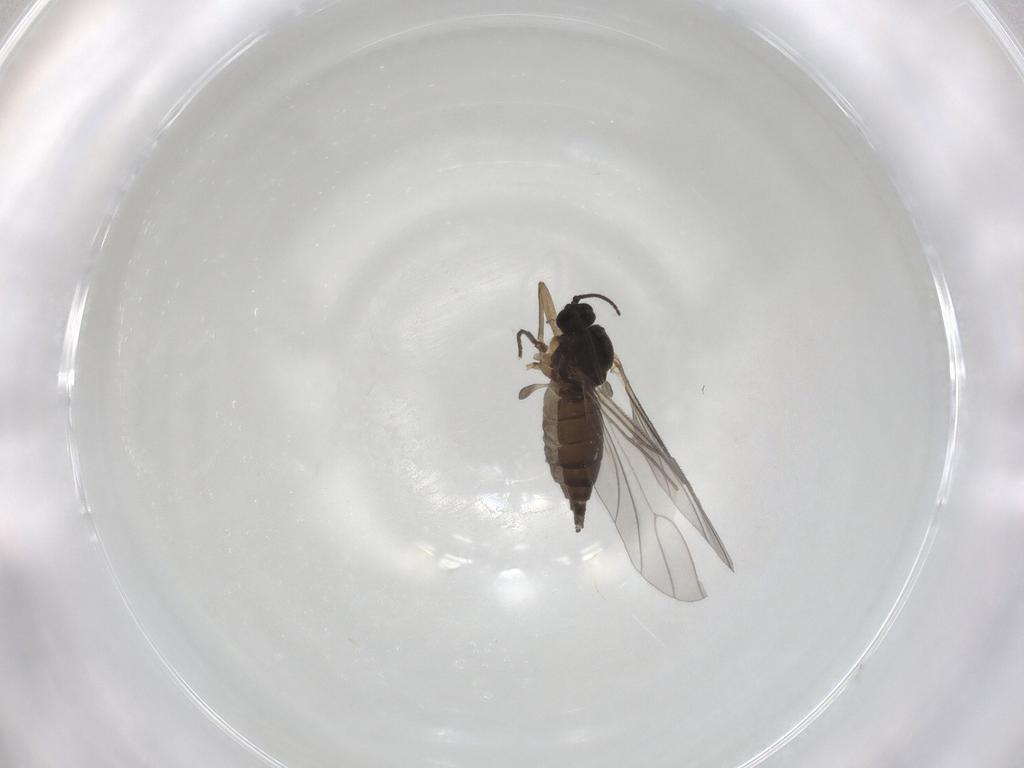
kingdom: Animalia
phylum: Arthropoda
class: Insecta
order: Diptera
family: Sciaridae
